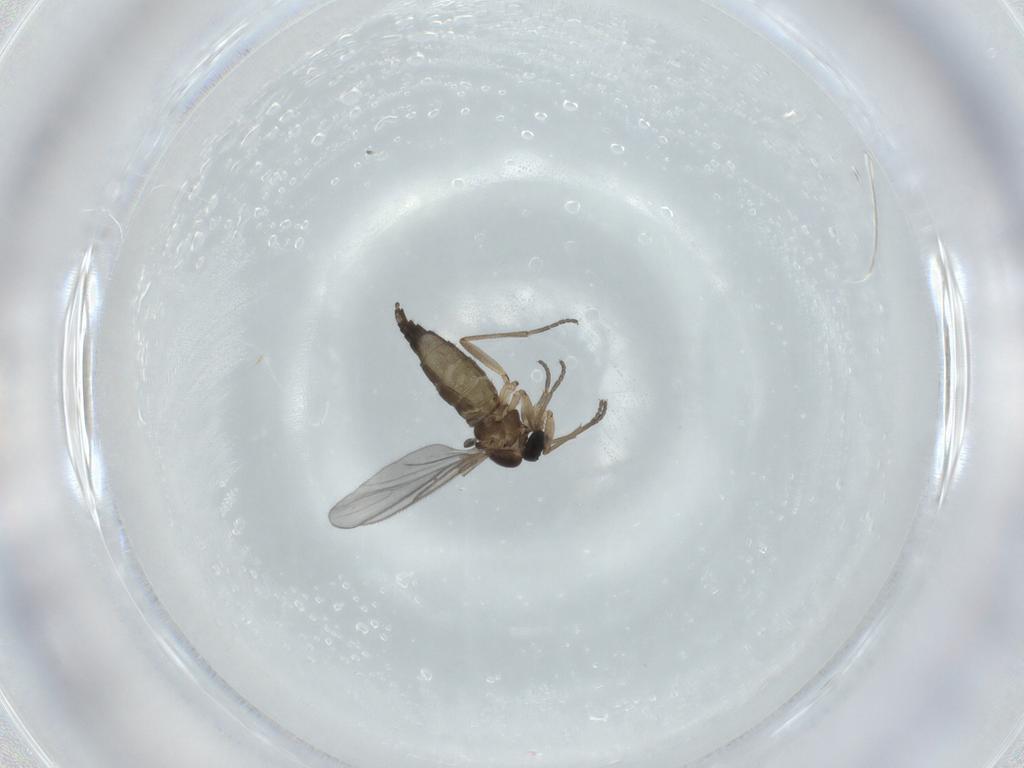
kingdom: Animalia
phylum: Arthropoda
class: Insecta
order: Diptera
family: Sciaridae
